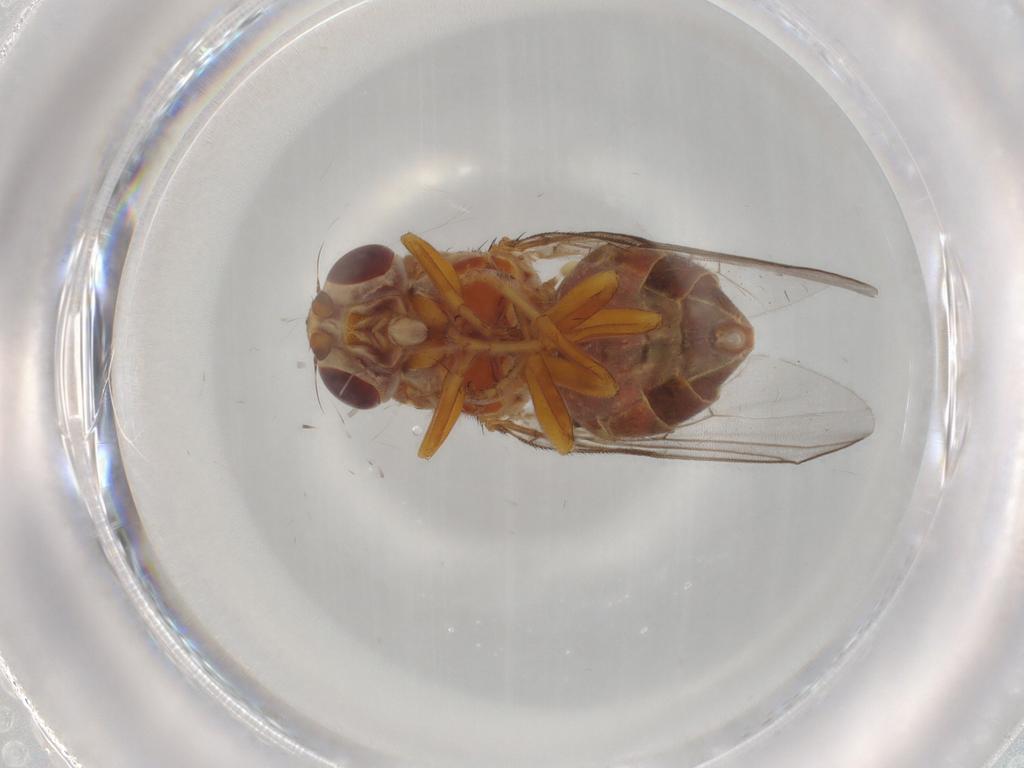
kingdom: Animalia
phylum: Arthropoda
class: Insecta
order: Diptera
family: Chloropidae
